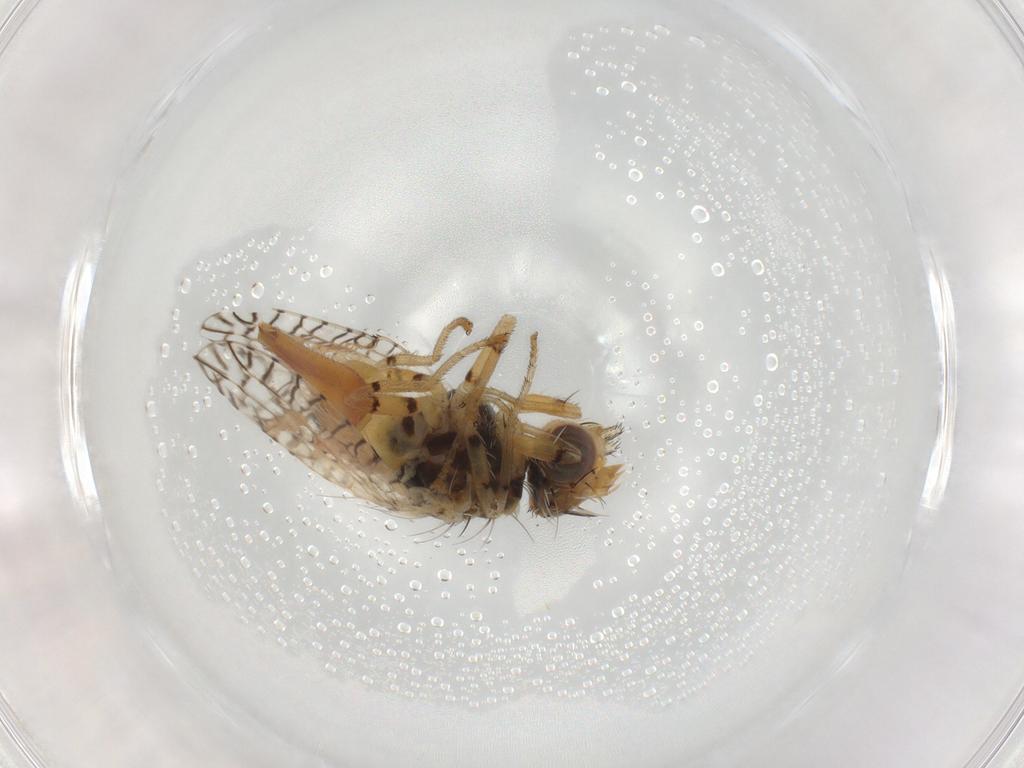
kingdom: Animalia
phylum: Arthropoda
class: Insecta
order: Diptera
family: Tephritidae
